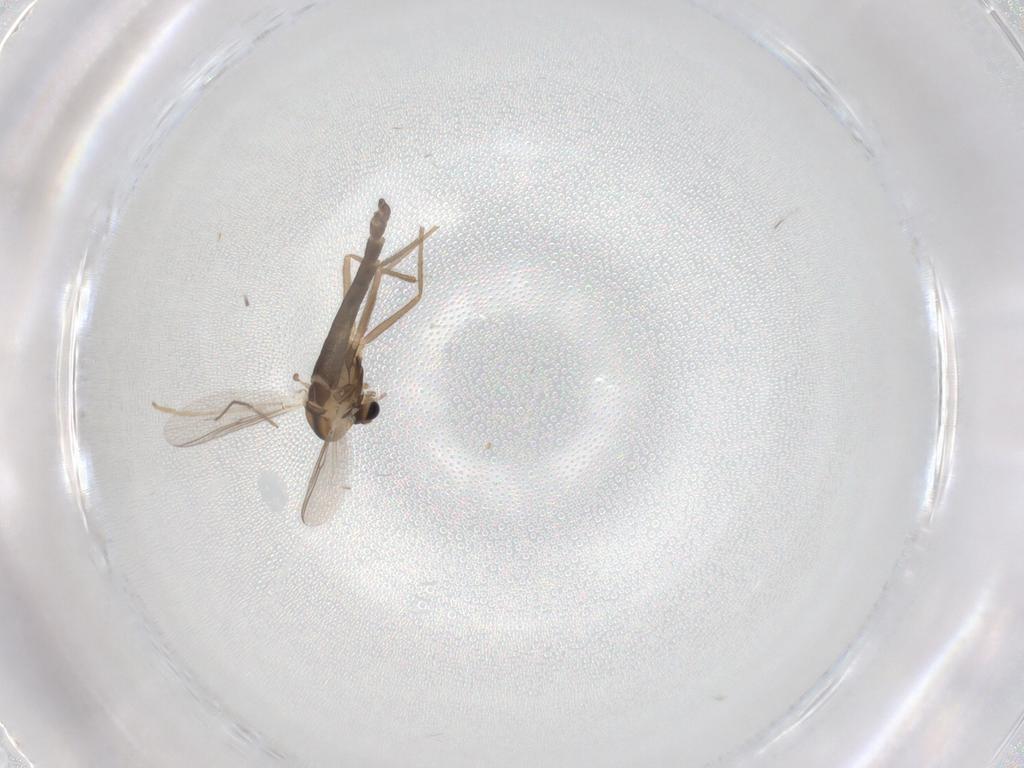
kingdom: Animalia
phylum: Arthropoda
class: Insecta
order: Diptera
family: Chironomidae
